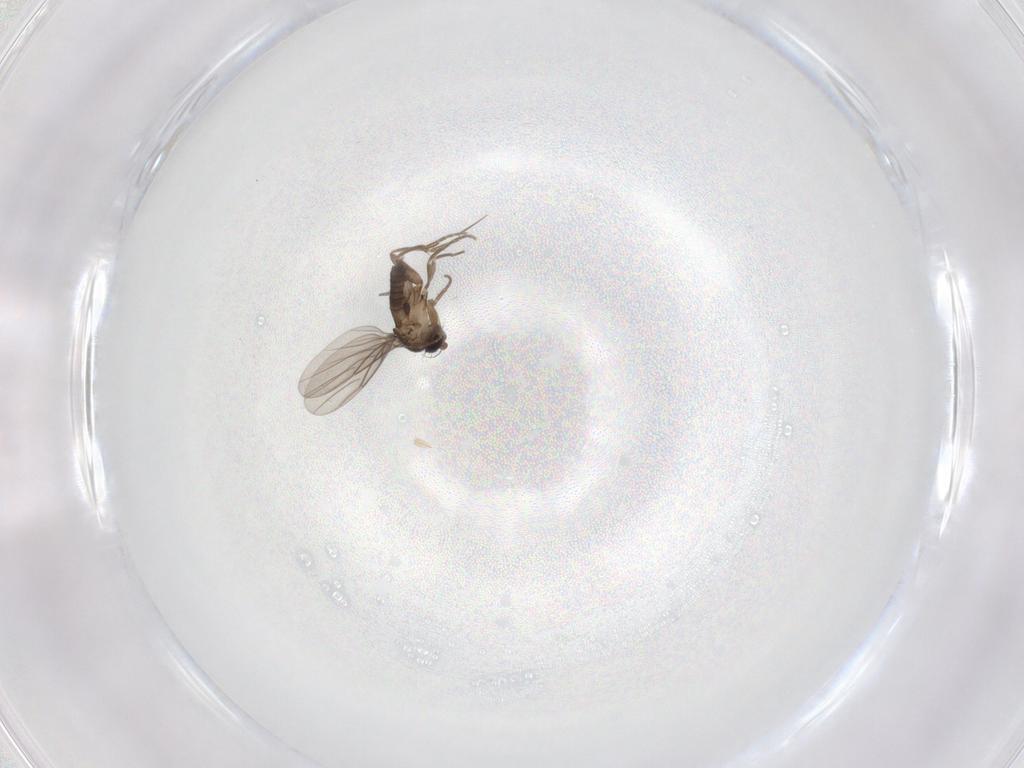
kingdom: Animalia
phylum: Arthropoda
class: Insecta
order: Diptera
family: Phoridae
